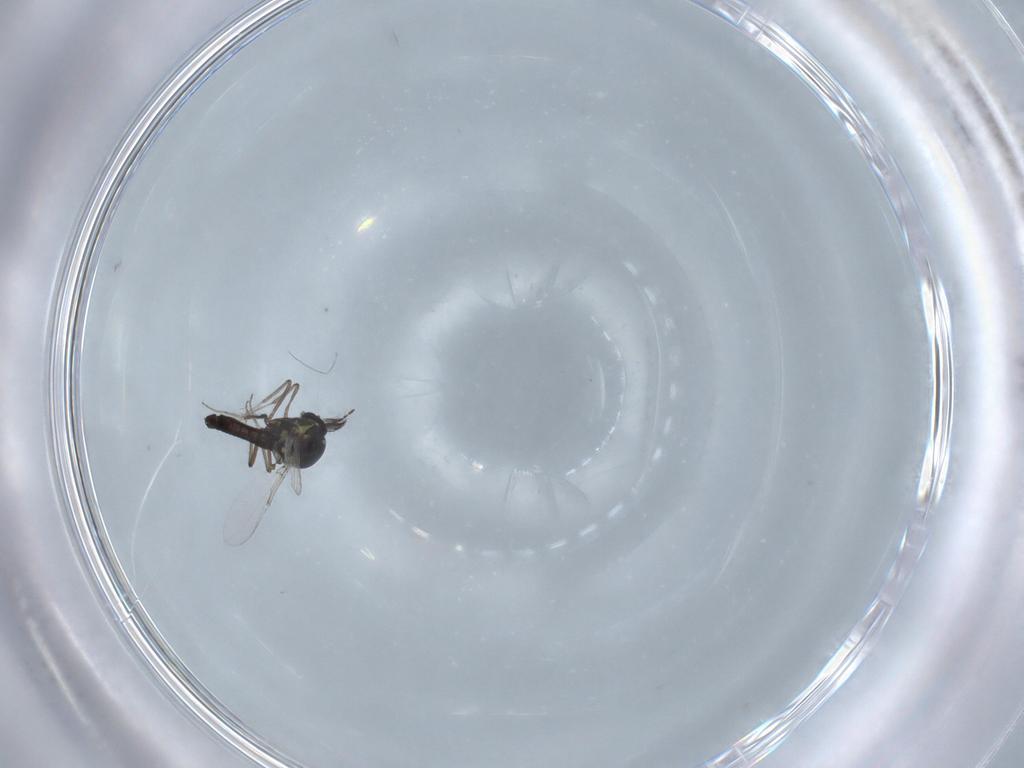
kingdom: Animalia
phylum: Arthropoda
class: Insecta
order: Diptera
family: Ceratopogonidae
